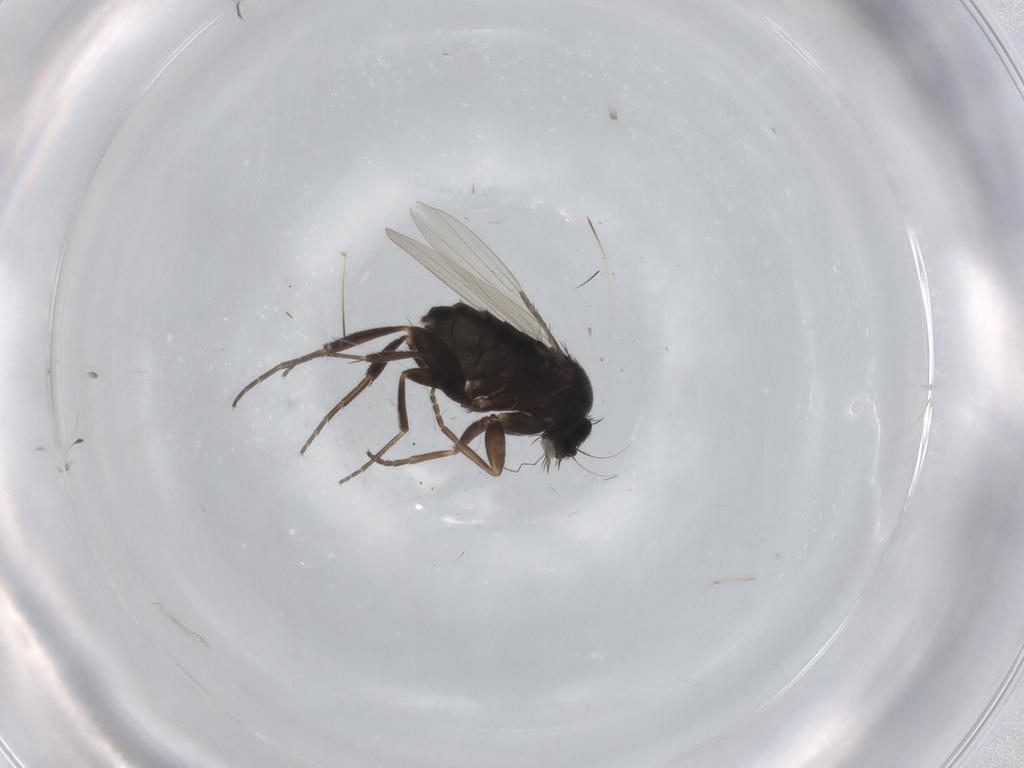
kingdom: Animalia
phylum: Arthropoda
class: Insecta
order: Diptera
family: Phoridae
